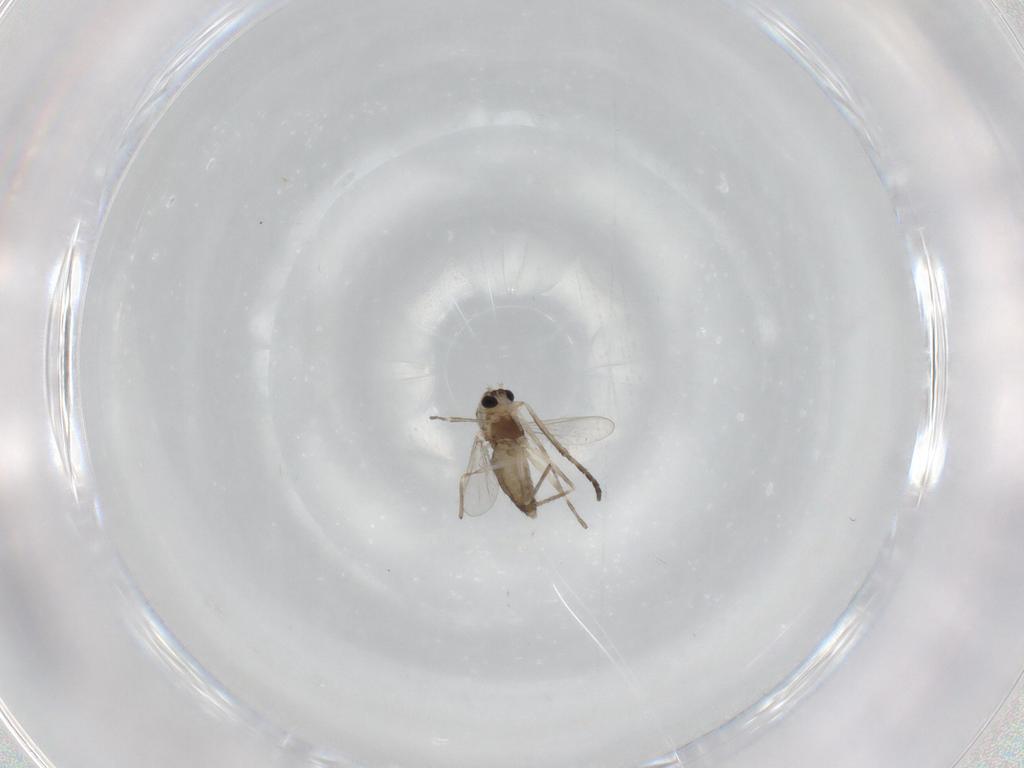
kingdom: Animalia
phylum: Arthropoda
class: Insecta
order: Diptera
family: Chironomidae
